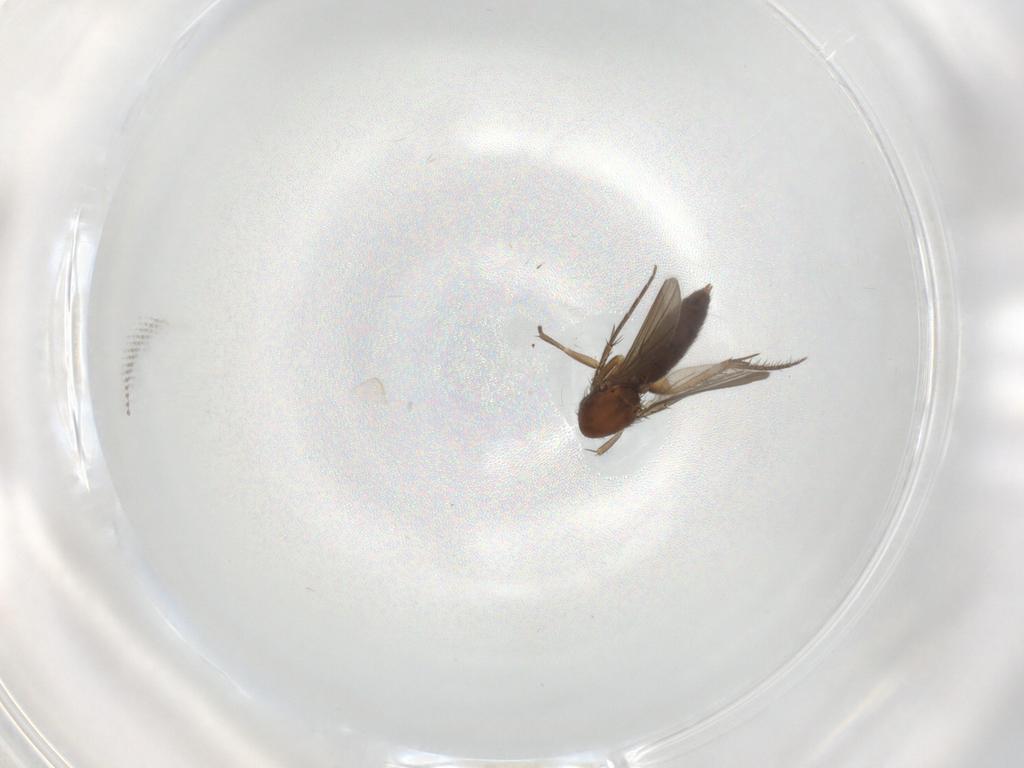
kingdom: Animalia
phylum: Arthropoda
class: Insecta
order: Diptera
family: Mycetophilidae
